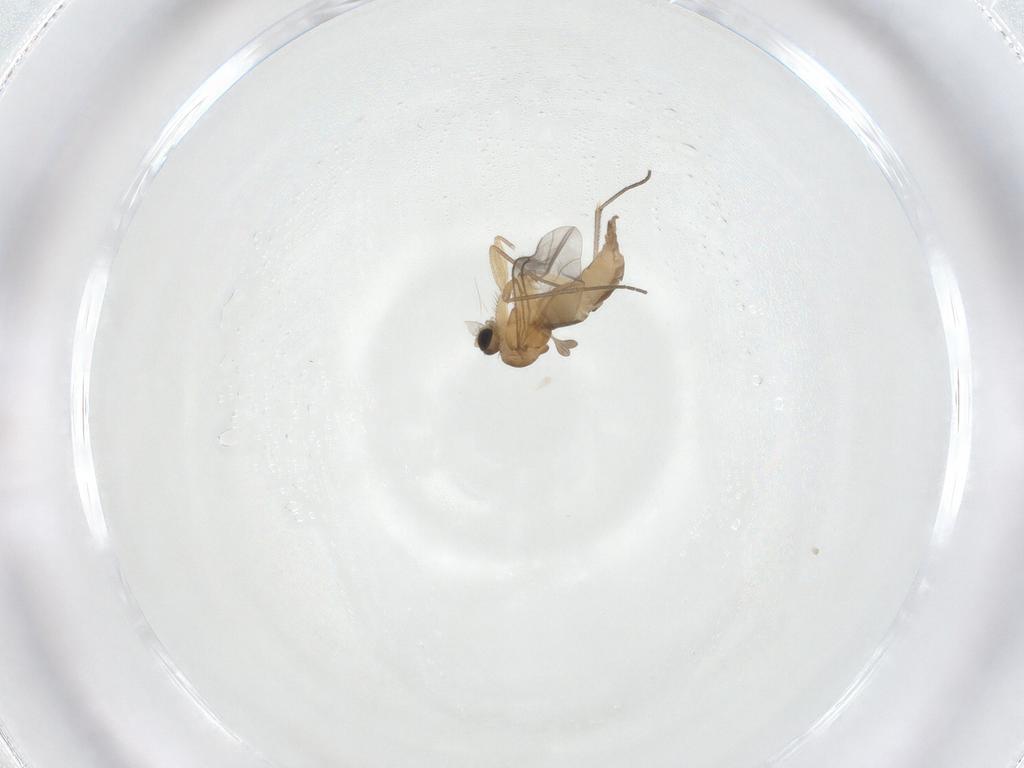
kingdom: Animalia
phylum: Arthropoda
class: Insecta
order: Diptera
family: Sciaridae
